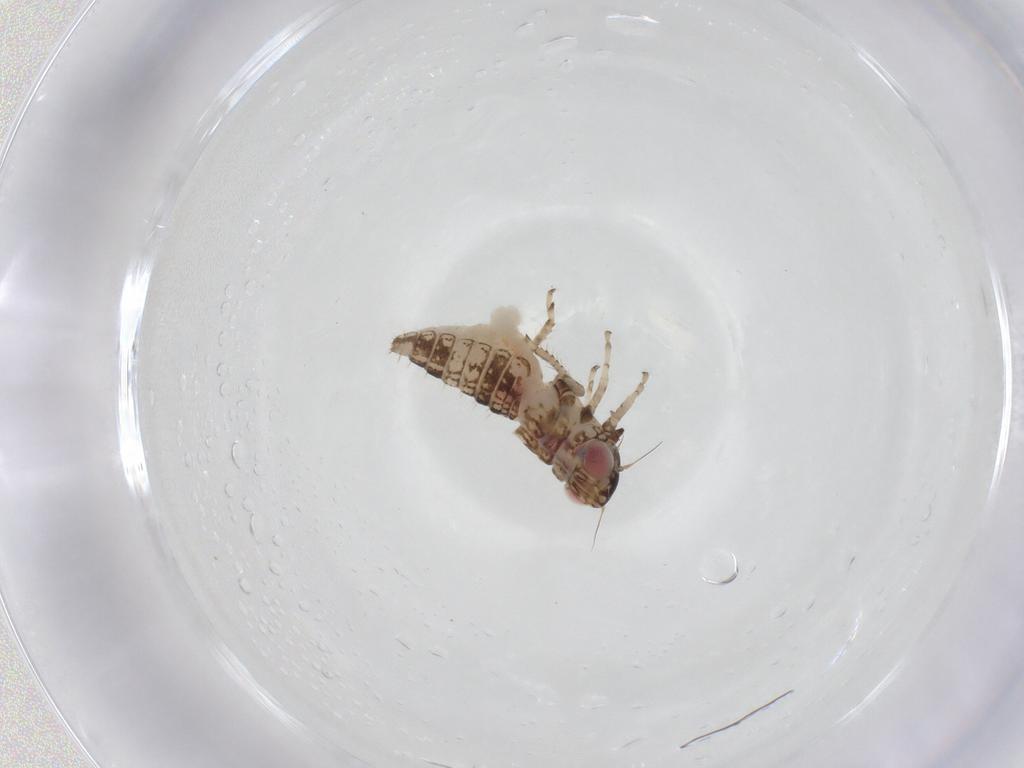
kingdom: Animalia
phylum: Arthropoda
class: Insecta
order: Hemiptera
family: Cicadellidae
